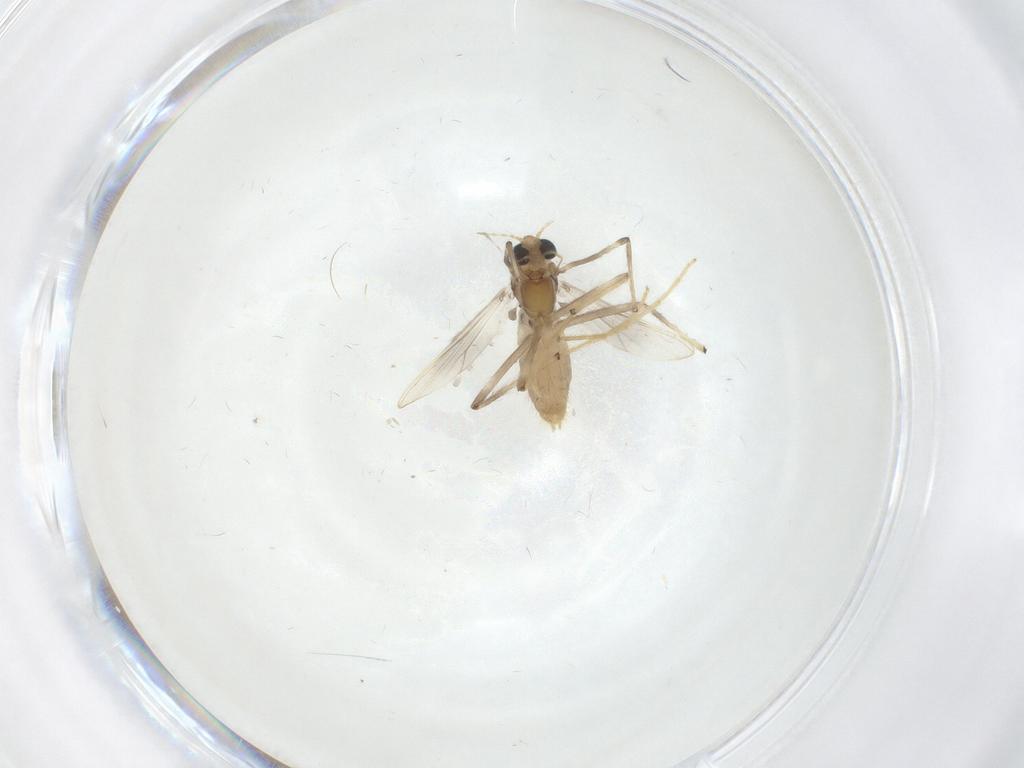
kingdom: Animalia
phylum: Arthropoda
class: Insecta
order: Diptera
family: Chironomidae
